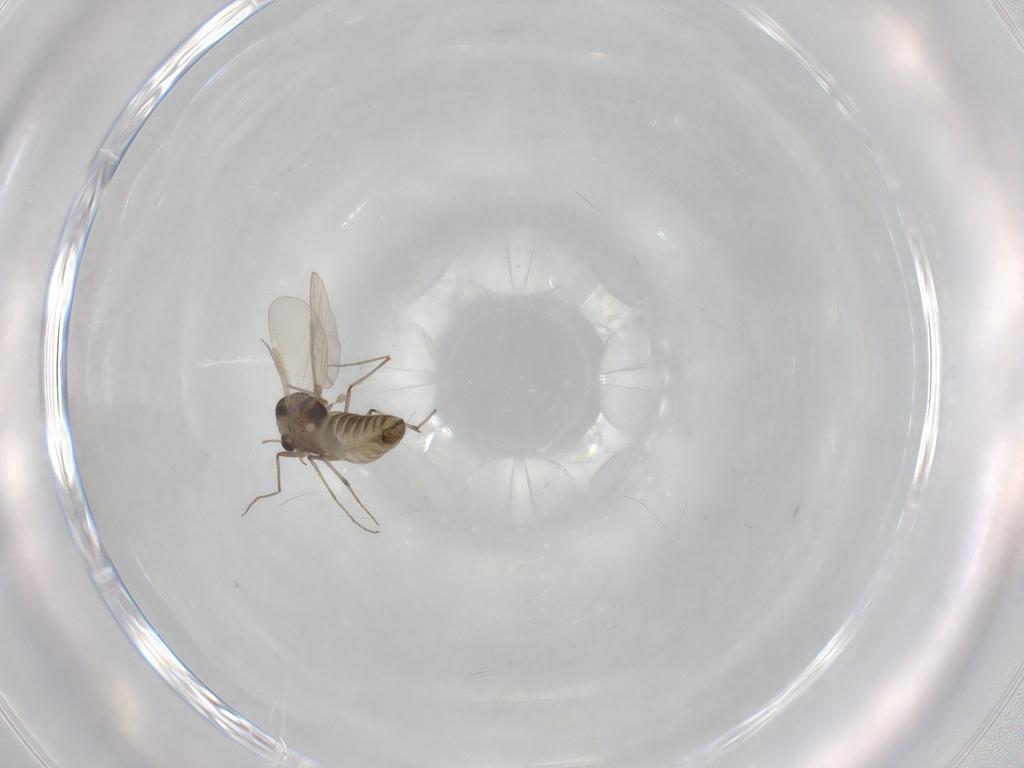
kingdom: Animalia
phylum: Arthropoda
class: Insecta
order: Diptera
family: Chironomidae
